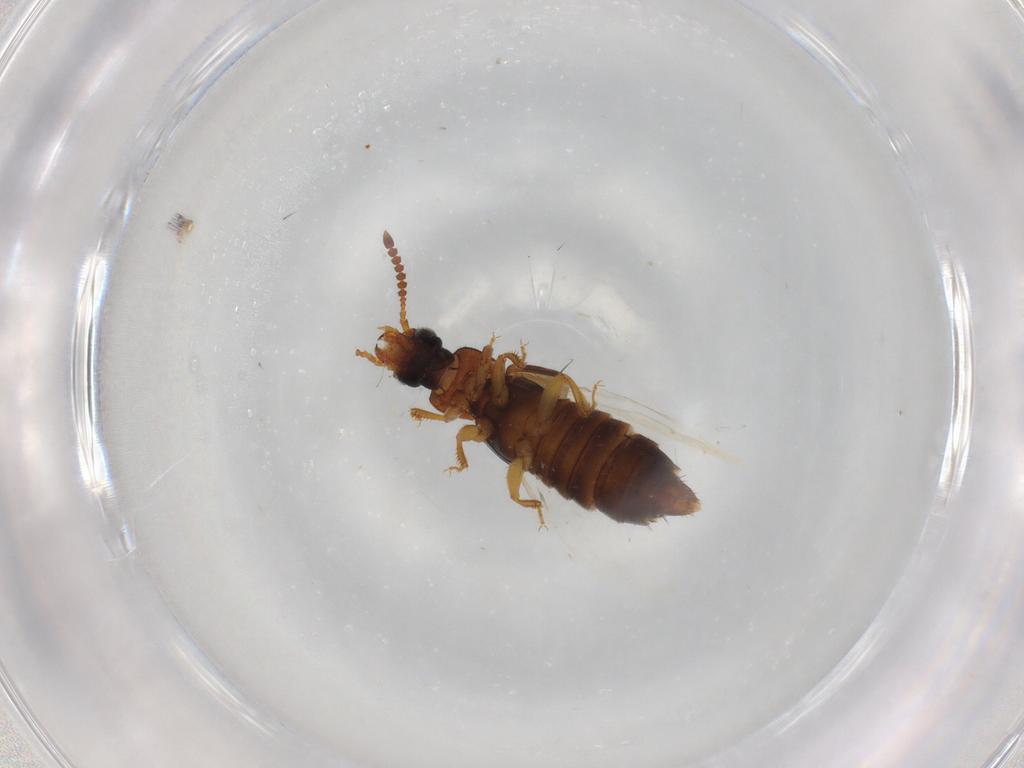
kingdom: Animalia
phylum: Arthropoda
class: Insecta
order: Coleoptera
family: Staphylinidae
